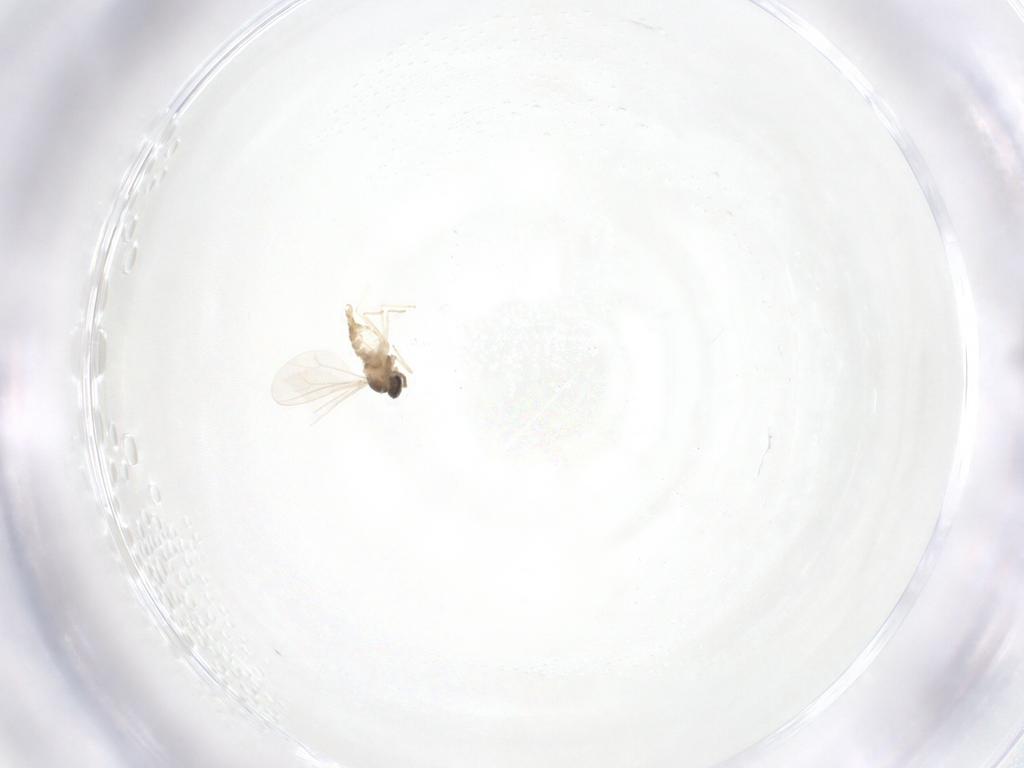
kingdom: Animalia
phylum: Arthropoda
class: Insecta
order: Diptera
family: Cecidomyiidae
